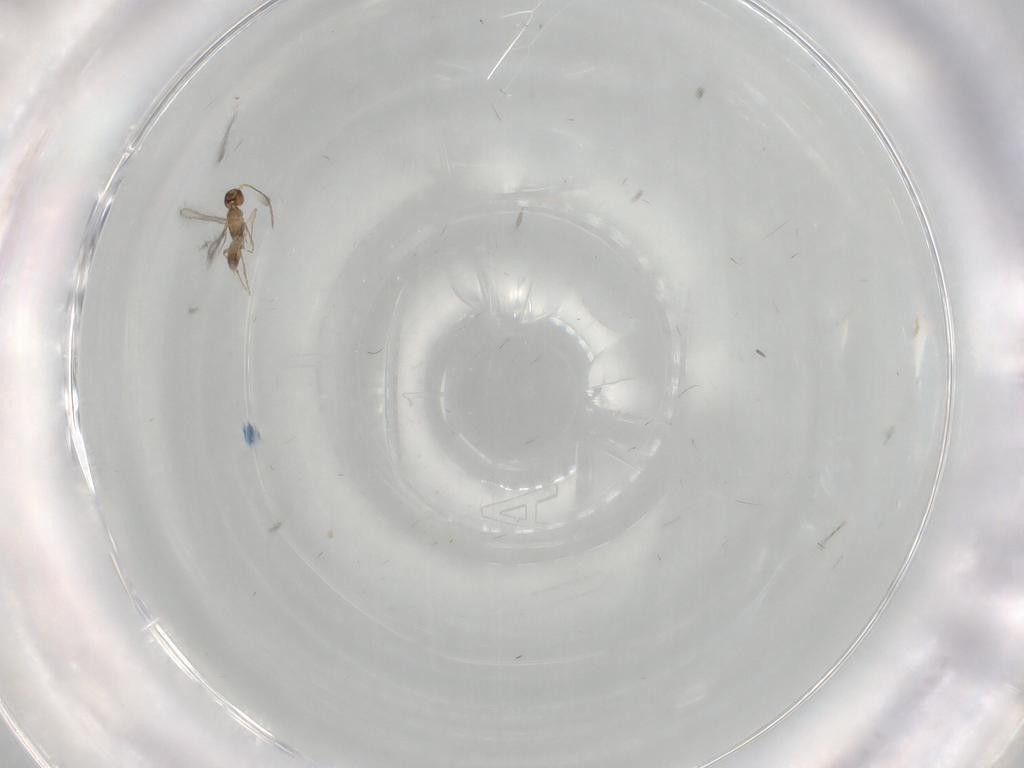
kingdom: Animalia
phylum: Arthropoda
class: Insecta
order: Hymenoptera
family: Mymaridae
